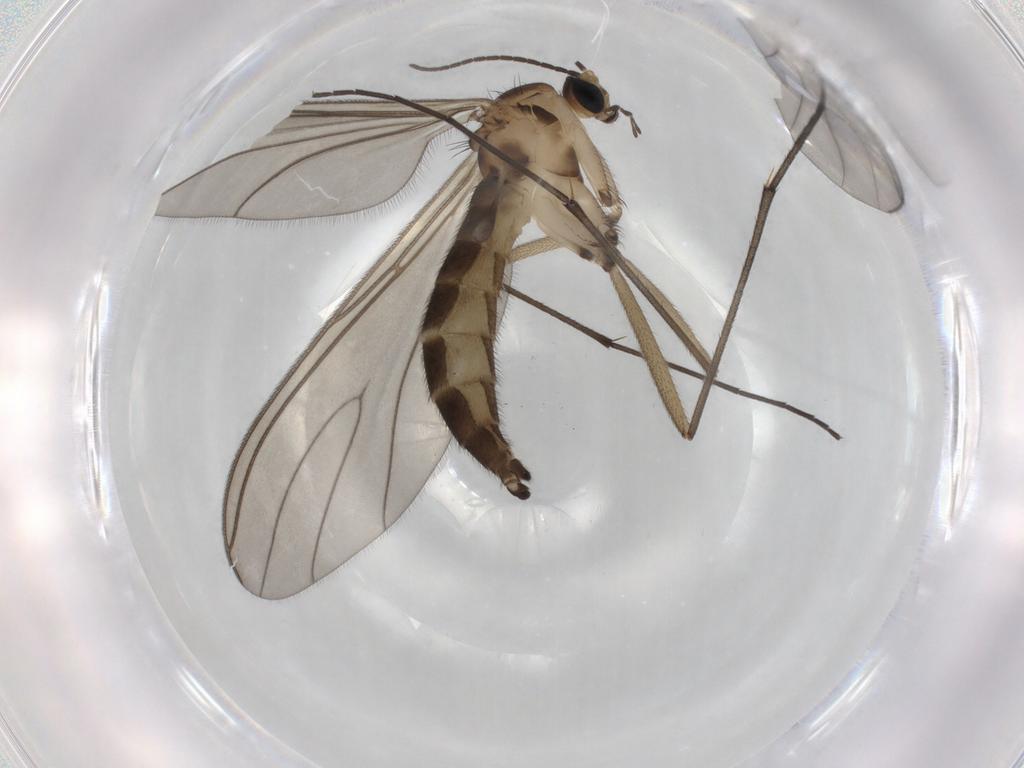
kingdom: Animalia
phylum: Arthropoda
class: Insecta
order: Diptera
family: Sciaridae
